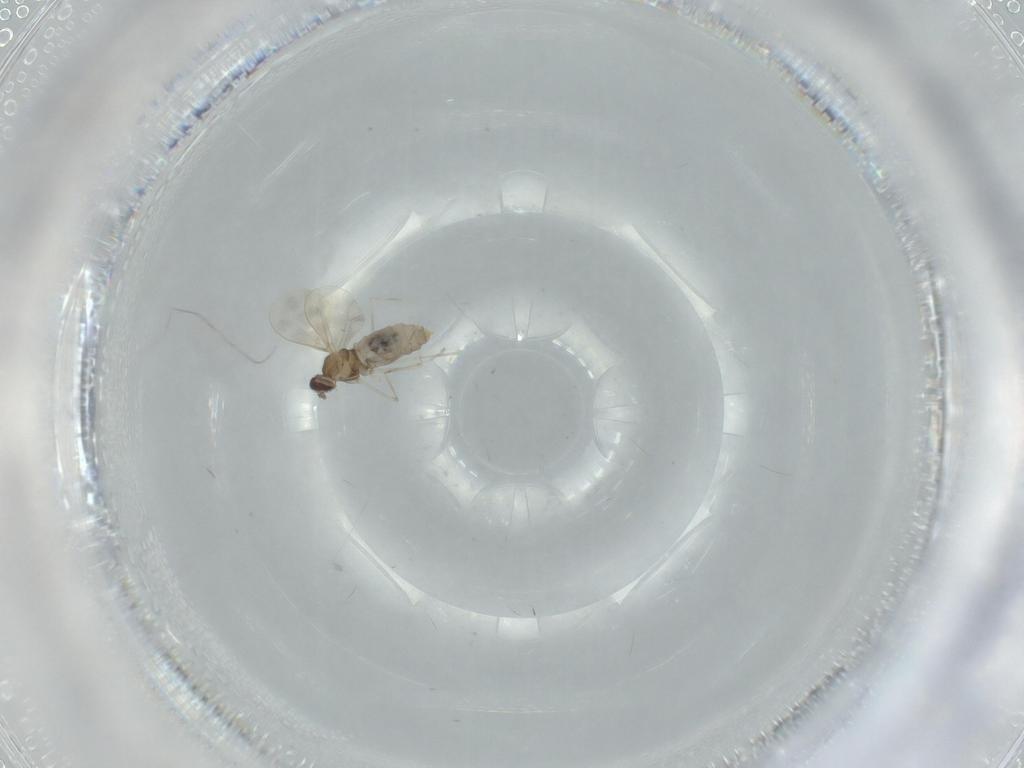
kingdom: Animalia
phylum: Arthropoda
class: Insecta
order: Diptera
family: Cecidomyiidae
